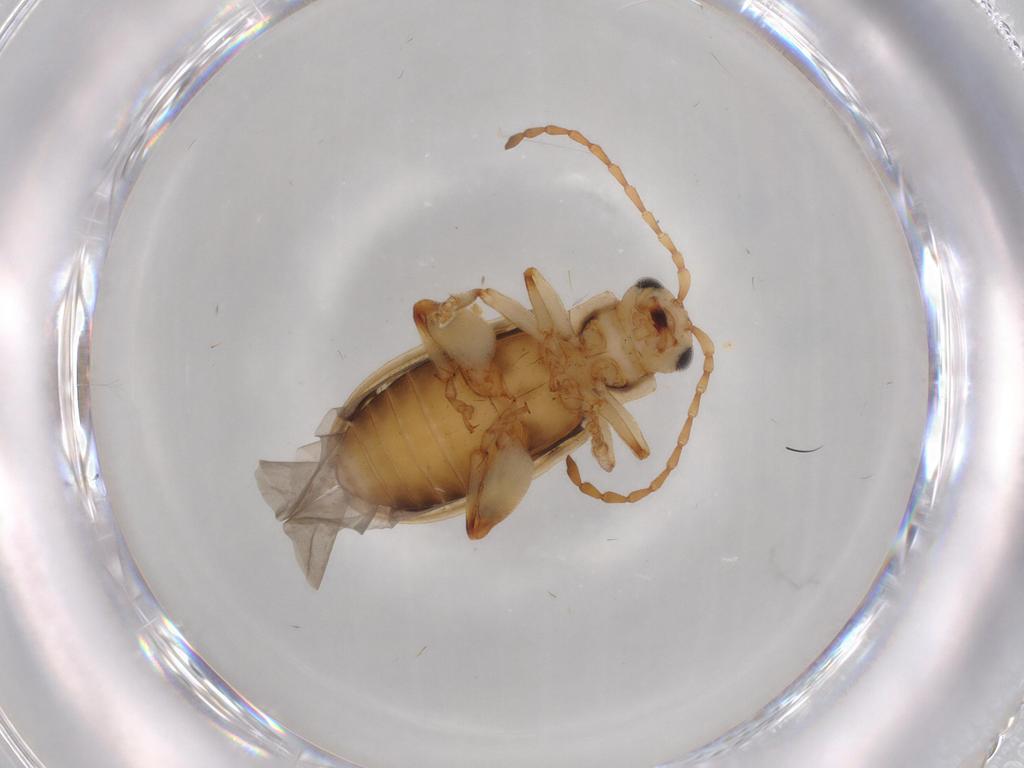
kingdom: Animalia
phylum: Arthropoda
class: Insecta
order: Coleoptera
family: Chrysomelidae
